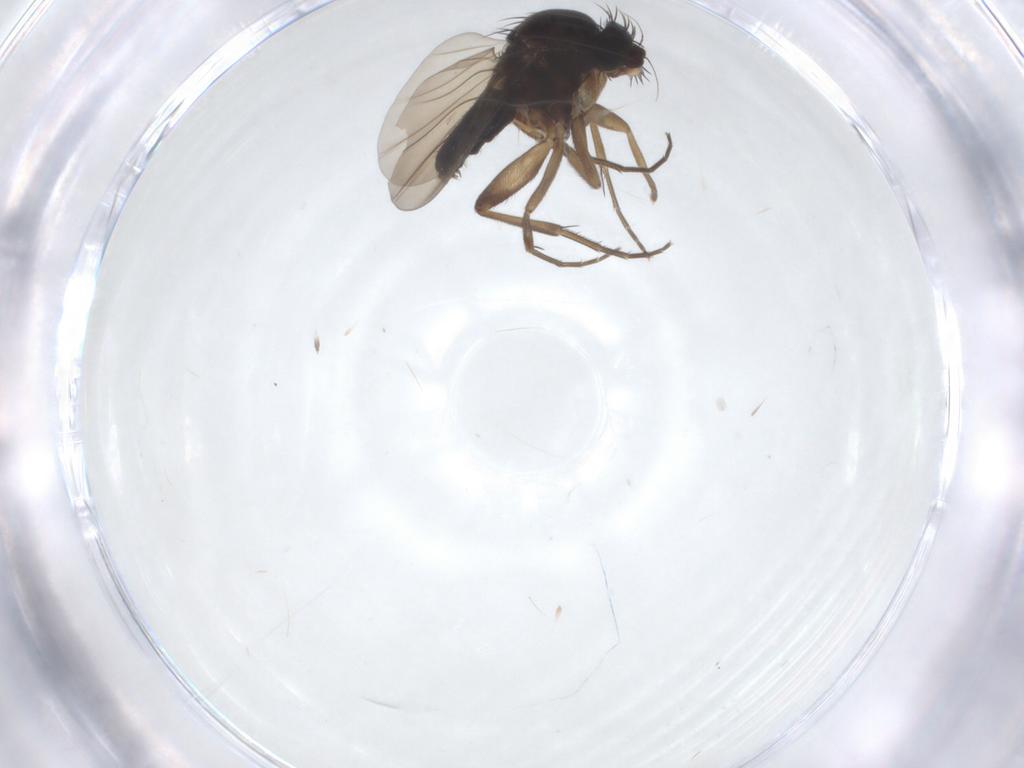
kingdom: Animalia
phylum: Arthropoda
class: Insecta
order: Diptera
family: Phoridae
